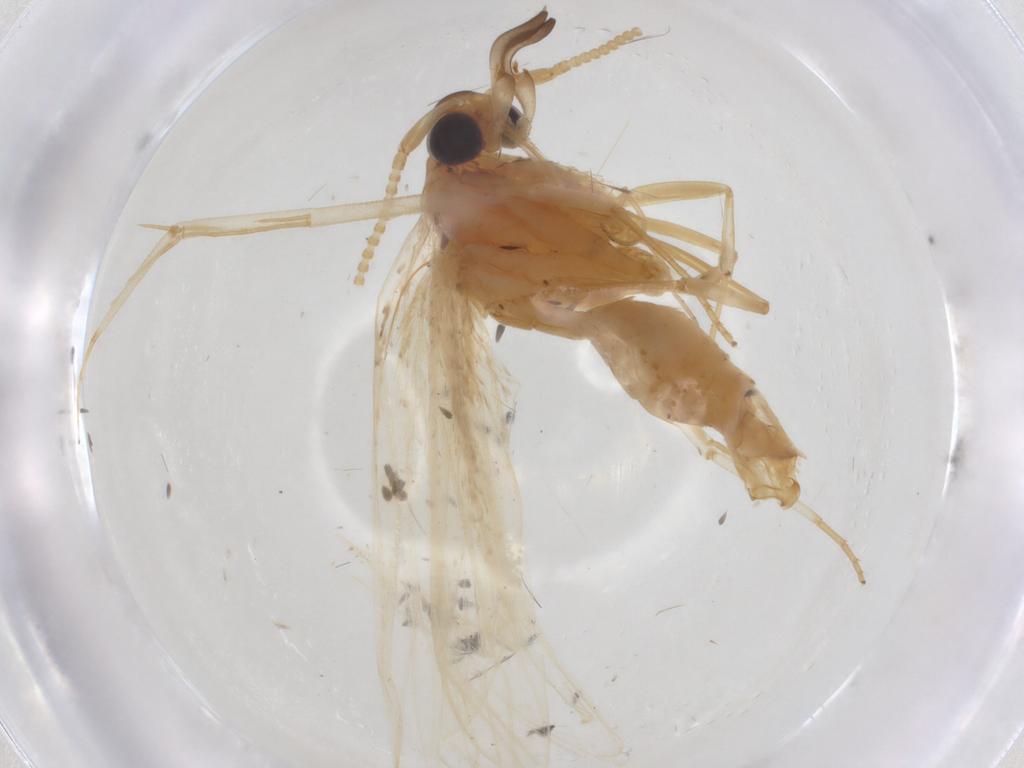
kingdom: Animalia
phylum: Arthropoda
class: Insecta
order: Lepidoptera
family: Lecithoceridae
